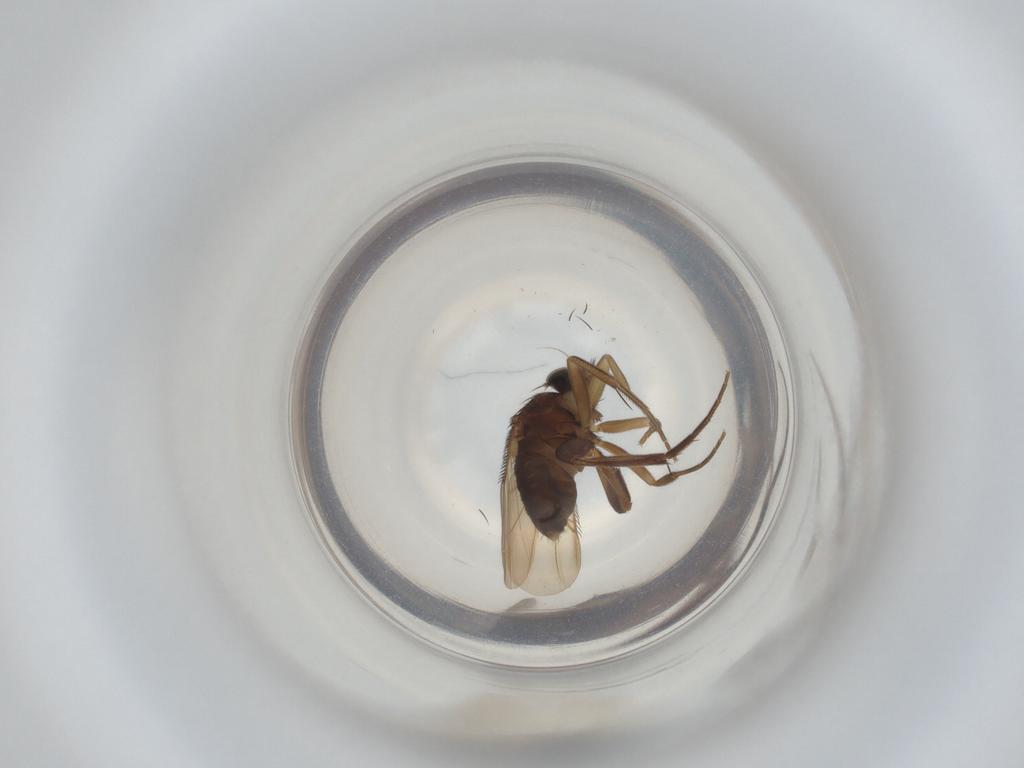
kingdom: Animalia
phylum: Arthropoda
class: Insecta
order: Diptera
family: Phoridae
